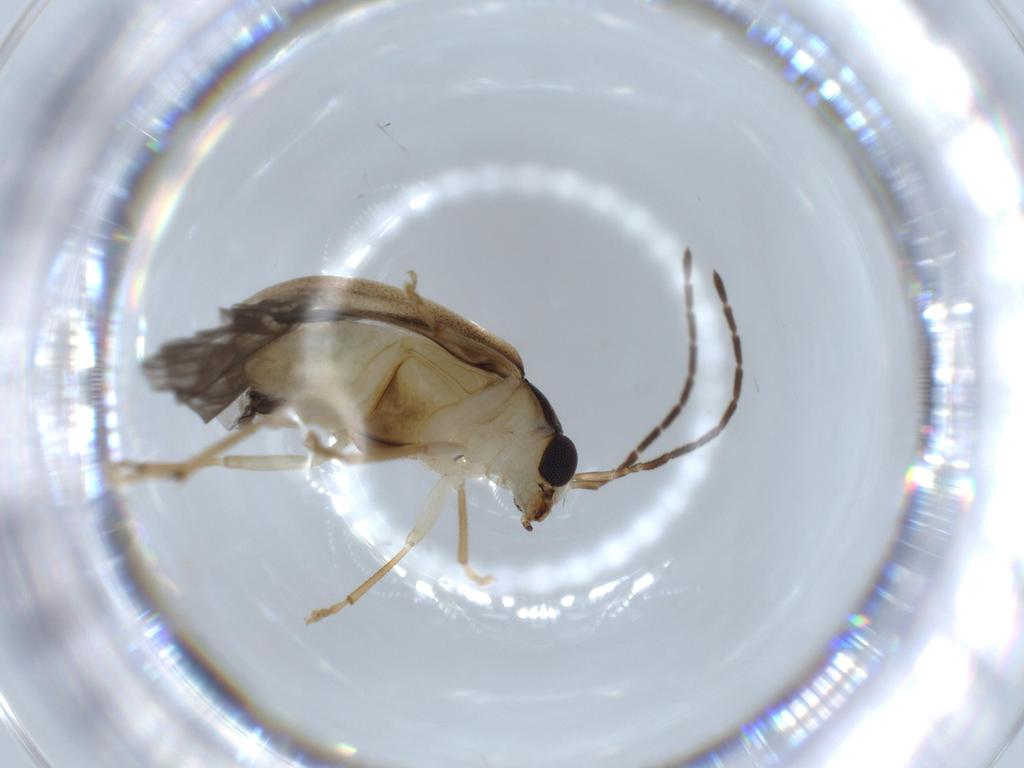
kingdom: Animalia
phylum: Arthropoda
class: Insecta
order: Coleoptera
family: Chrysomelidae
